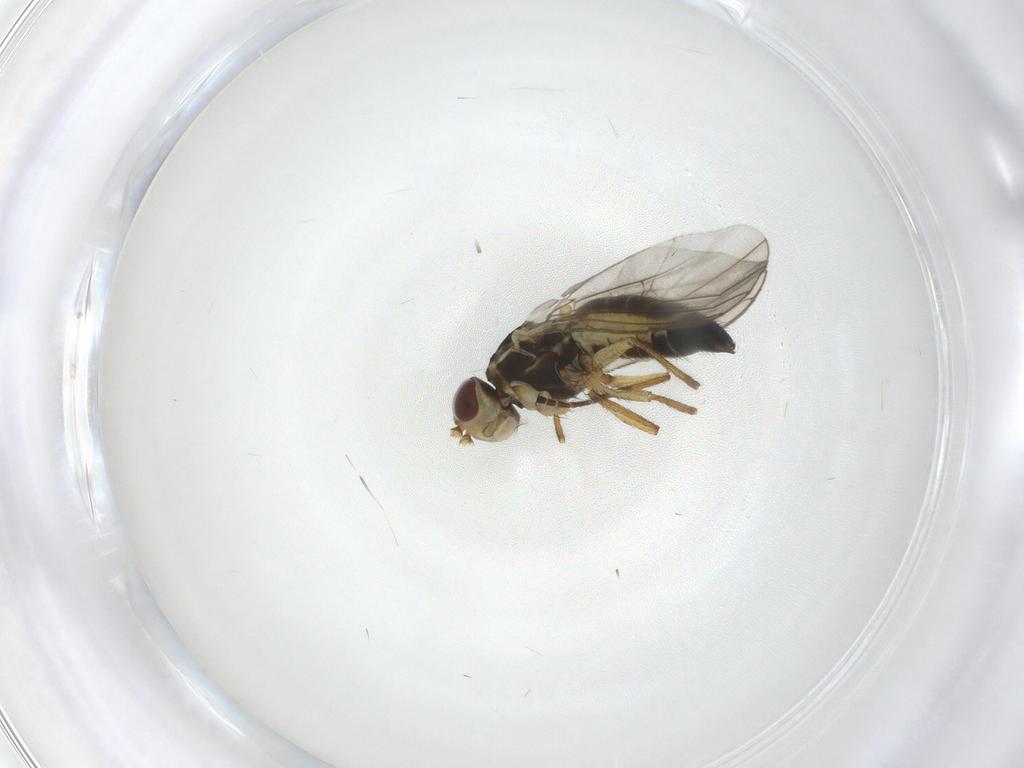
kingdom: Animalia
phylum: Arthropoda
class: Insecta
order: Diptera
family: Agromyzidae
